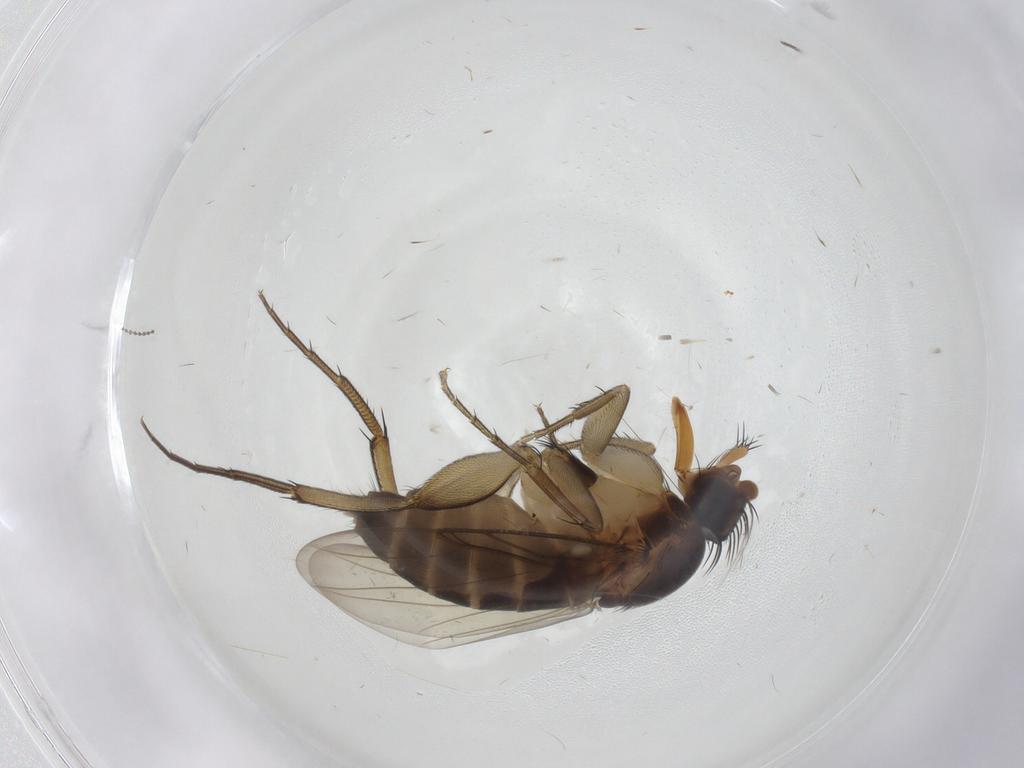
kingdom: Animalia
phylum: Arthropoda
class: Insecta
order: Diptera
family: Phoridae
